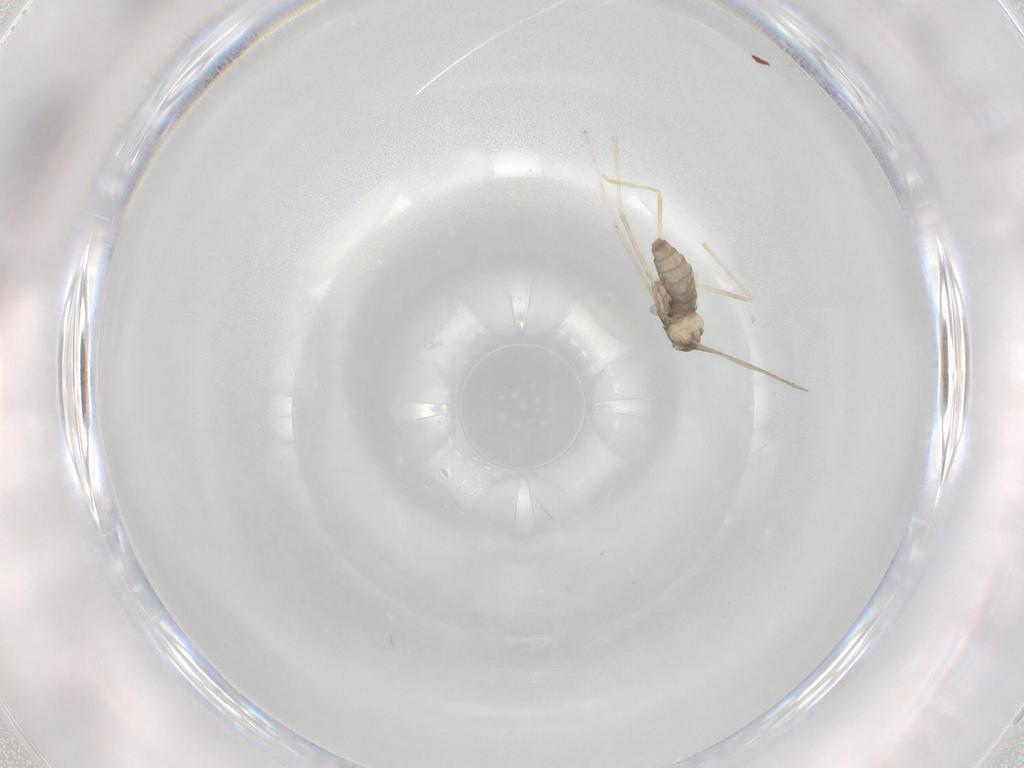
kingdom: Animalia
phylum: Arthropoda
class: Insecta
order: Diptera
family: Cecidomyiidae
